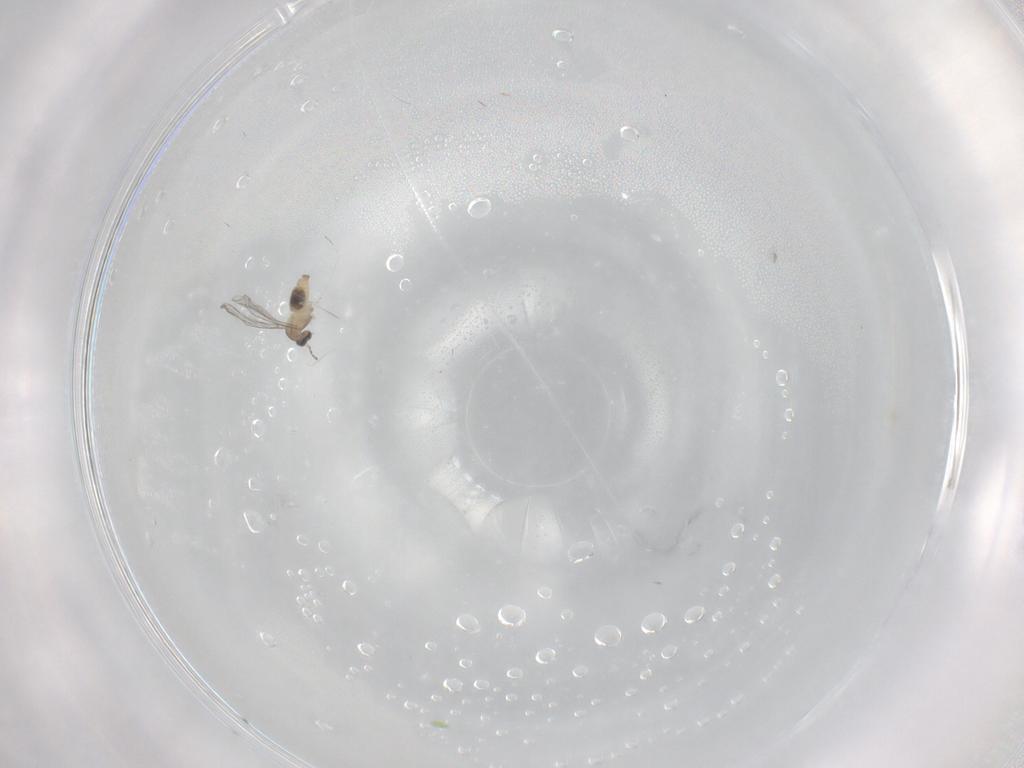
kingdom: Animalia
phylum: Arthropoda
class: Insecta
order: Diptera
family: Cecidomyiidae
